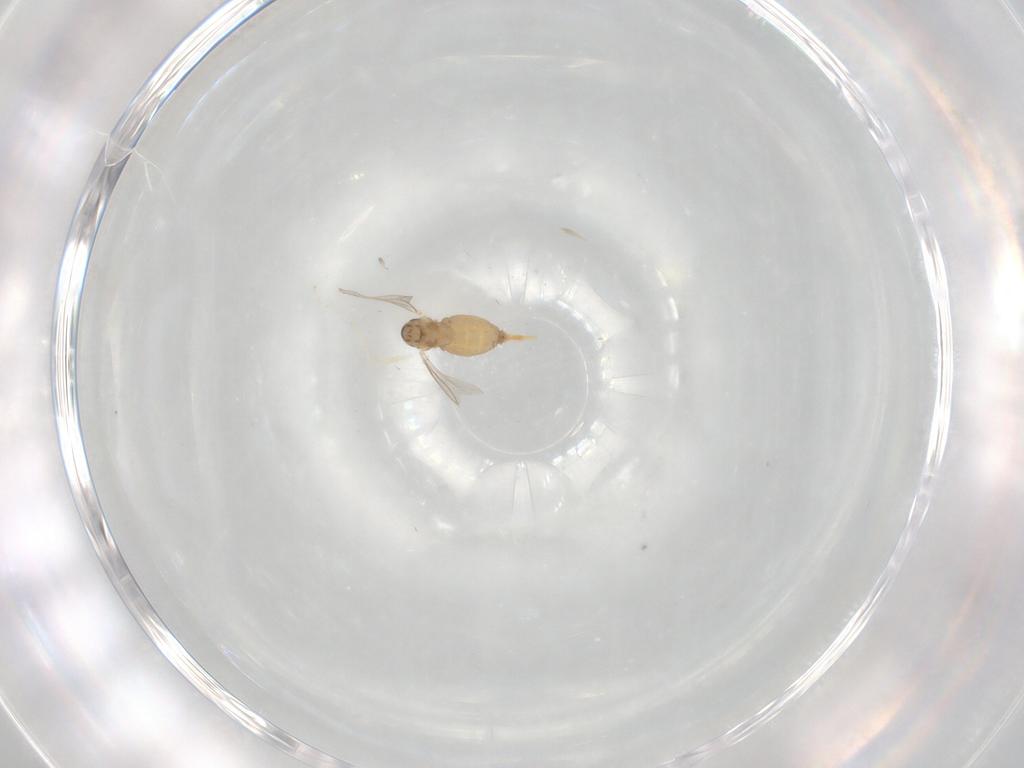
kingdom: Animalia
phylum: Arthropoda
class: Insecta
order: Diptera
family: Cecidomyiidae
